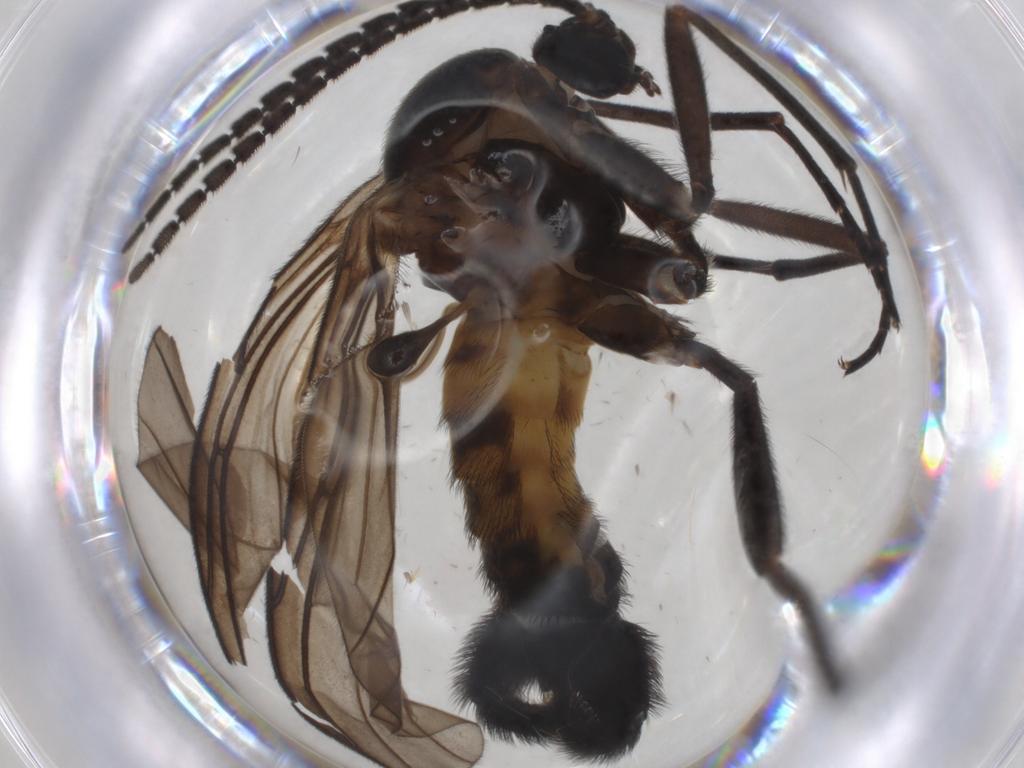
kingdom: Animalia
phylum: Arthropoda
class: Insecta
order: Diptera
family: Sciaridae
